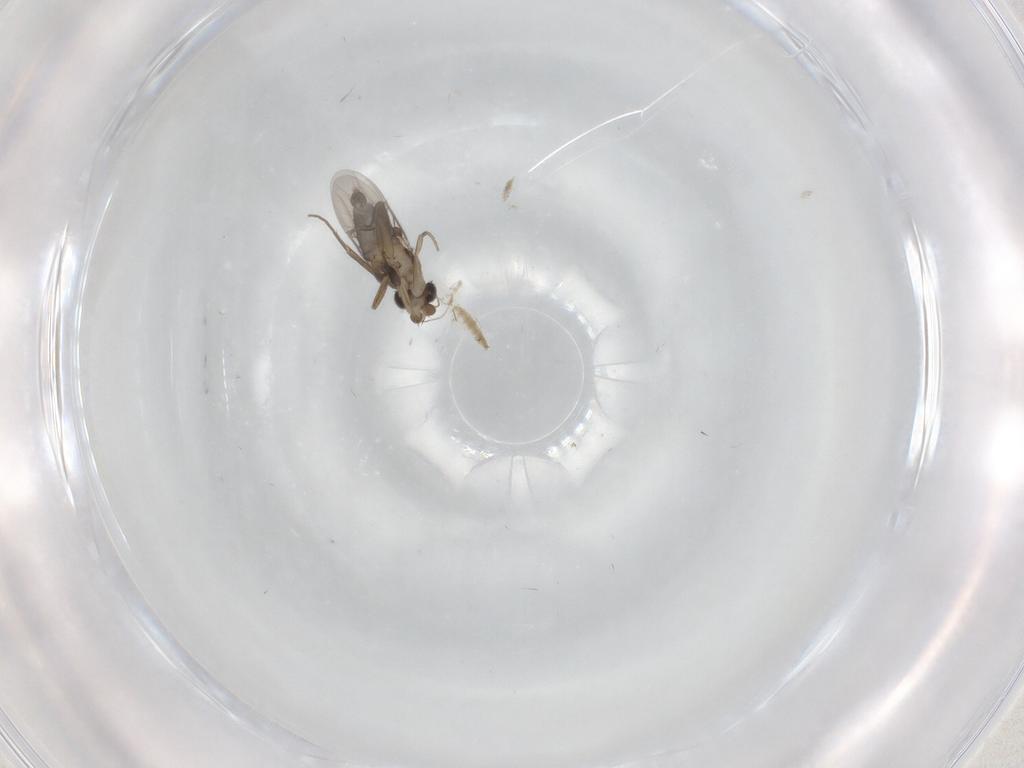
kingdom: Animalia
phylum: Arthropoda
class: Insecta
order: Diptera
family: Drosophilidae
